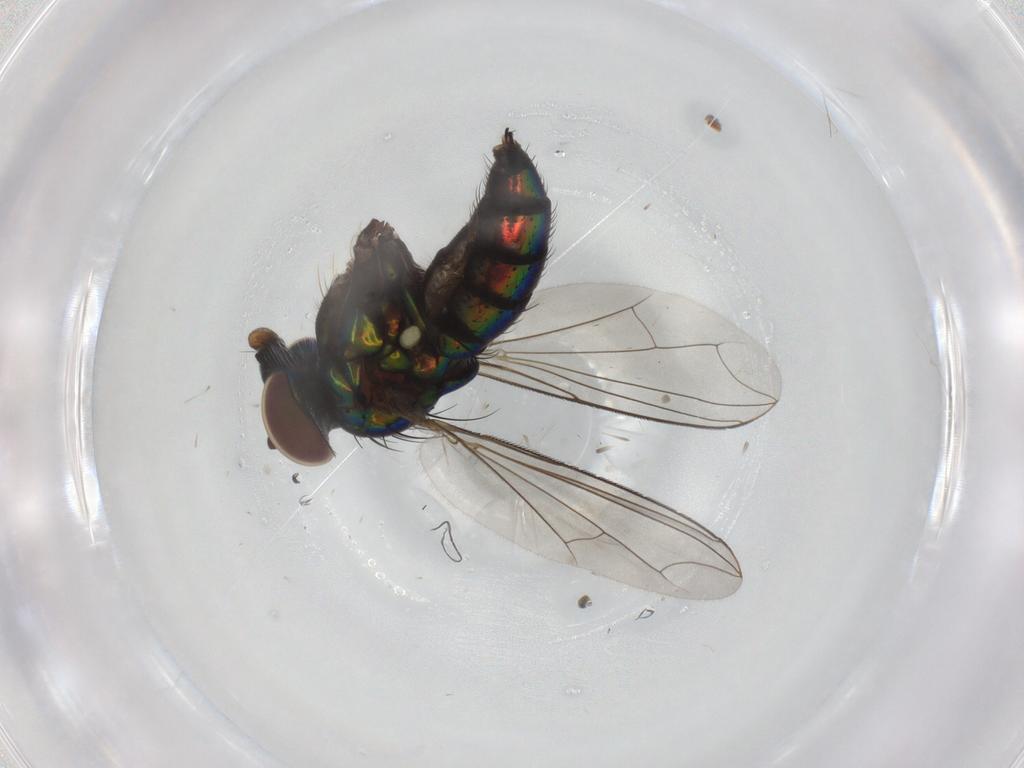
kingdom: Animalia
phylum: Arthropoda
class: Insecta
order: Diptera
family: Dolichopodidae
